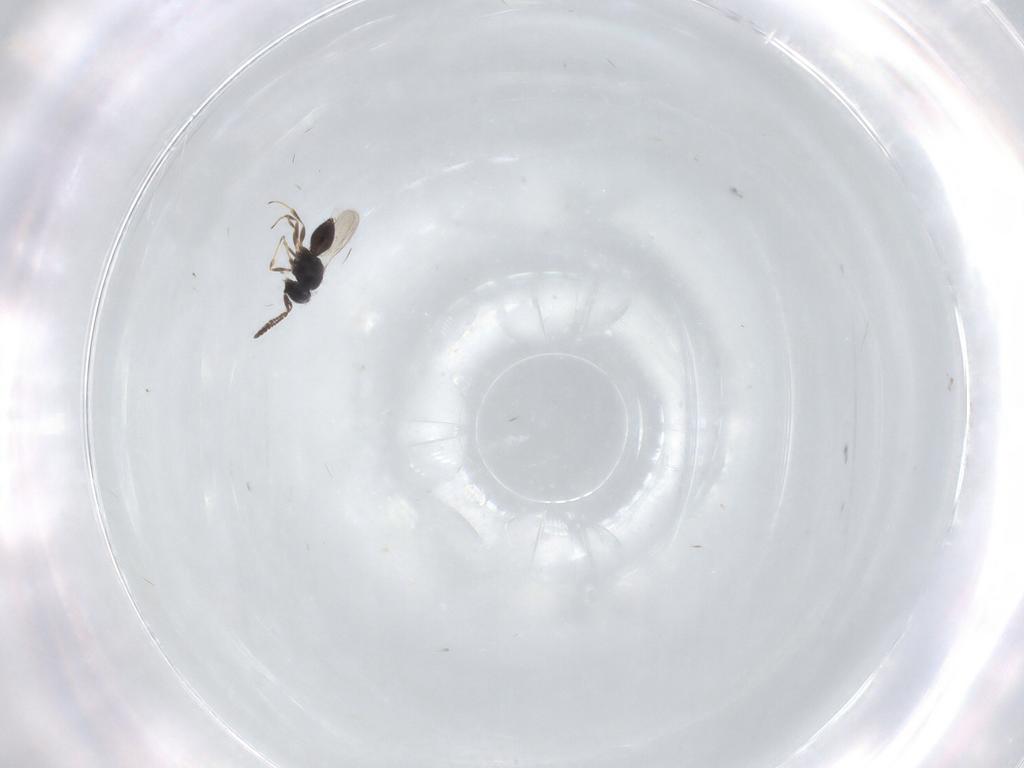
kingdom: Animalia
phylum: Arthropoda
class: Insecta
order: Hymenoptera
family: Scelionidae
